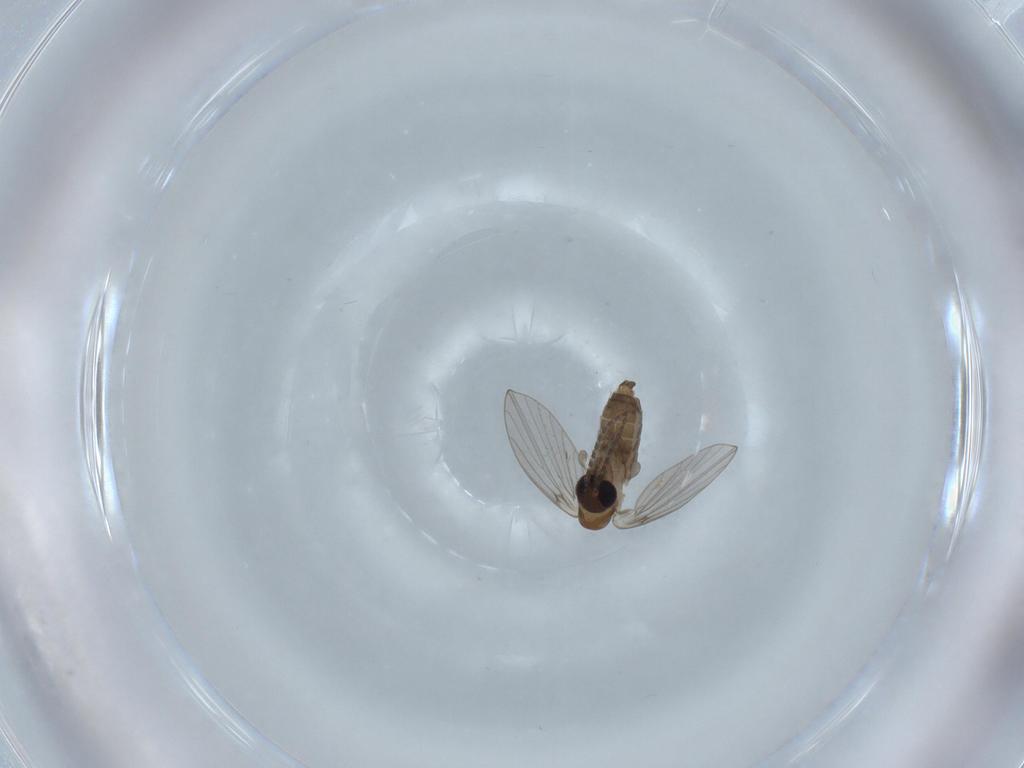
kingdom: Animalia
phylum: Arthropoda
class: Insecta
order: Diptera
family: Psychodidae
